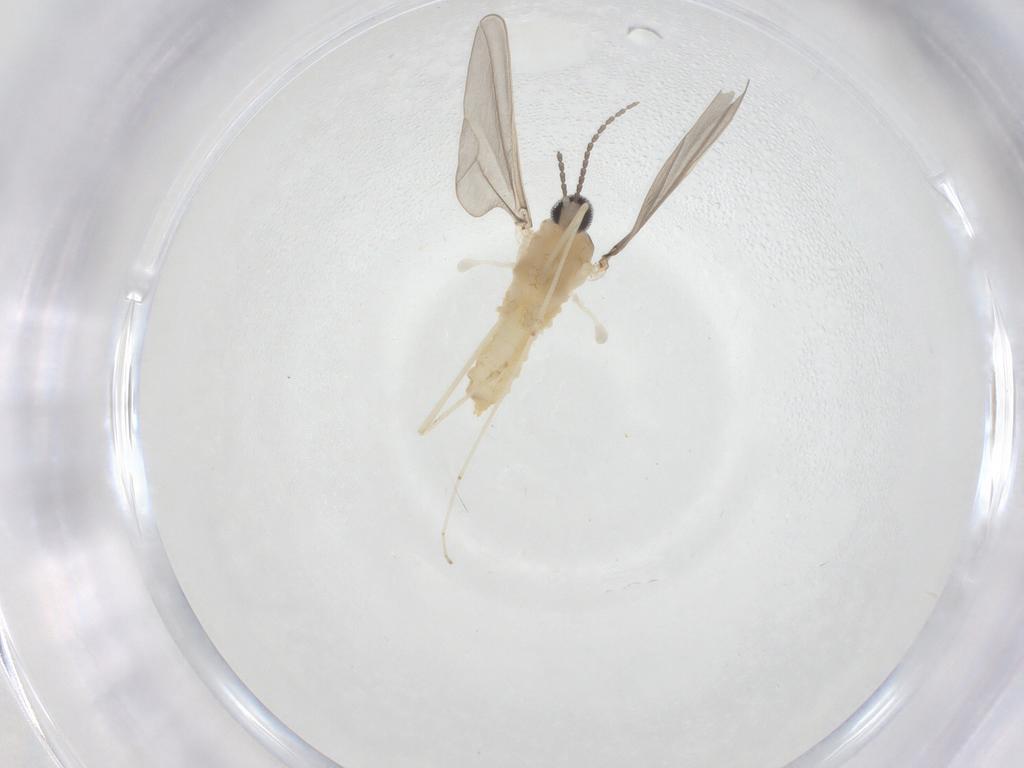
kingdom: Animalia
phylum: Arthropoda
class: Insecta
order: Diptera
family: Cecidomyiidae
